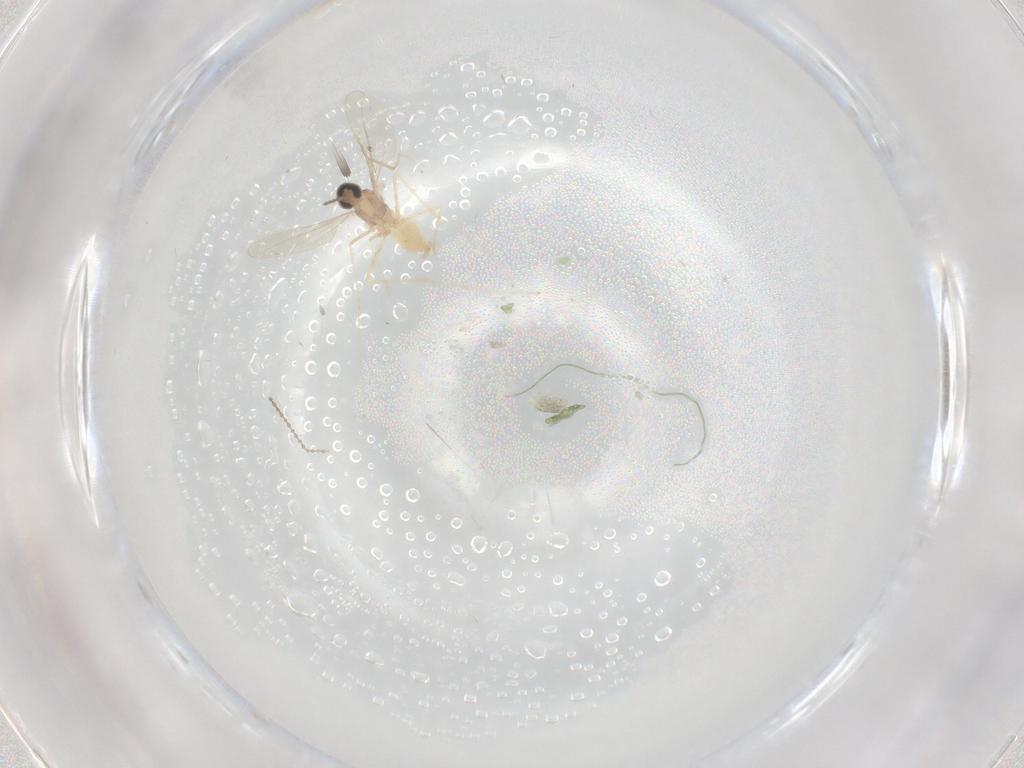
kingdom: Animalia
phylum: Arthropoda
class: Insecta
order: Diptera
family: Cecidomyiidae
